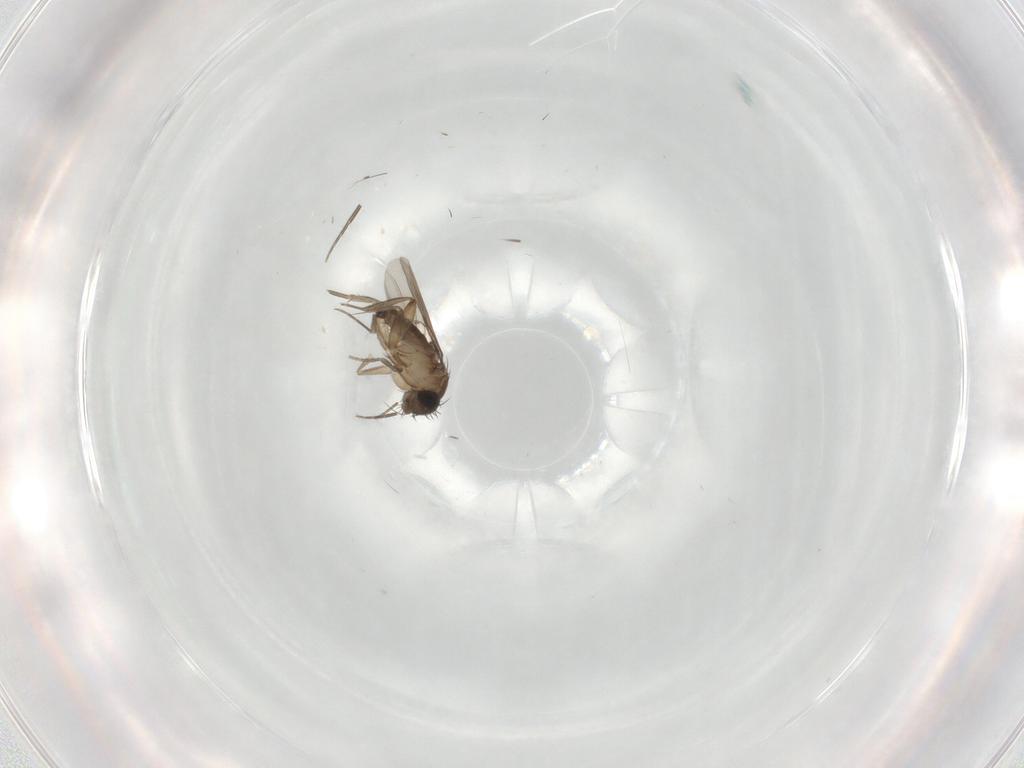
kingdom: Animalia
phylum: Arthropoda
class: Insecta
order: Diptera
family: Phoridae
